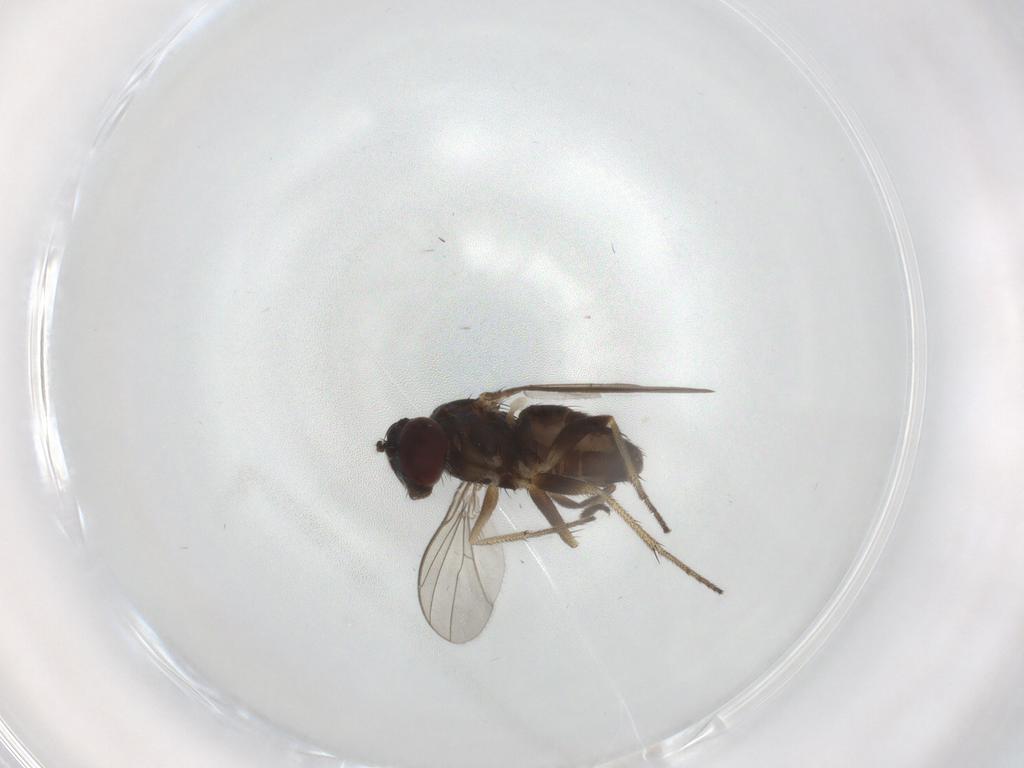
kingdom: Animalia
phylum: Arthropoda
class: Insecta
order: Diptera
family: Dolichopodidae
